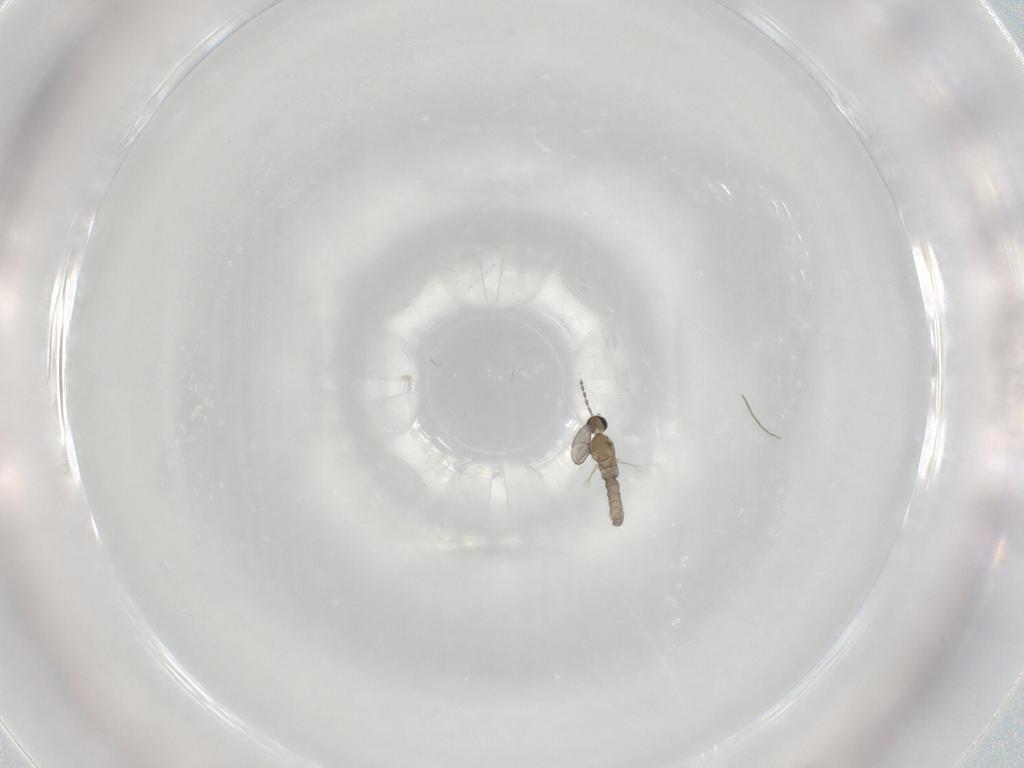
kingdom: Animalia
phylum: Arthropoda
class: Insecta
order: Diptera
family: Cecidomyiidae
